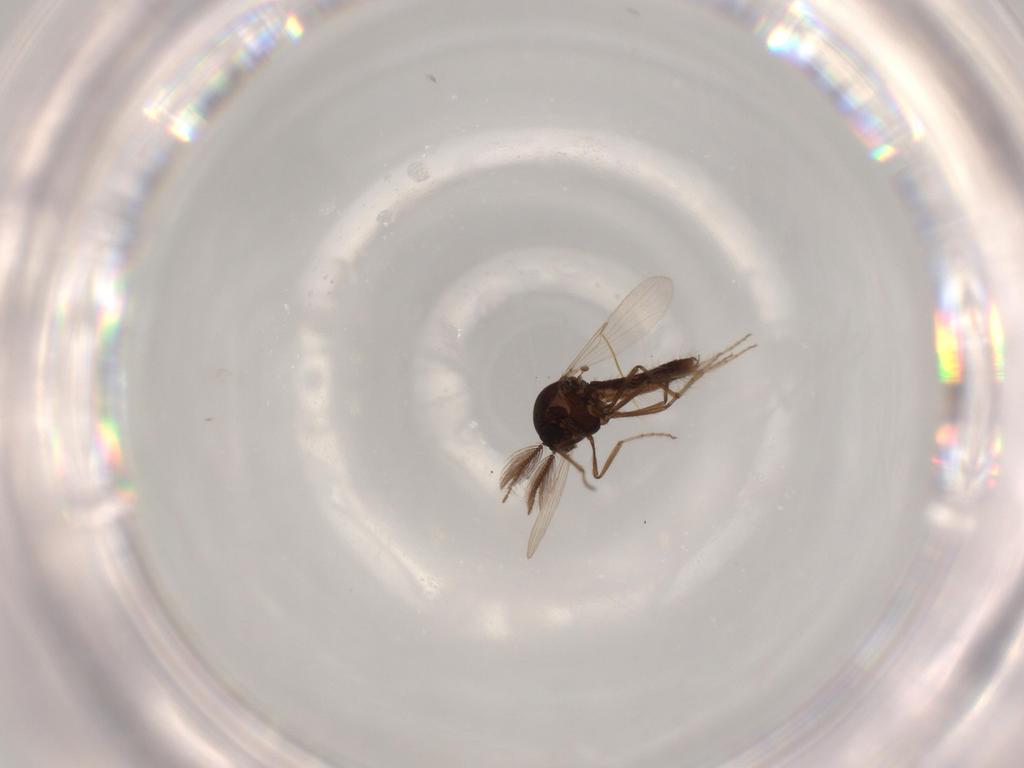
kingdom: Animalia
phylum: Arthropoda
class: Insecta
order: Diptera
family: Chironomidae
